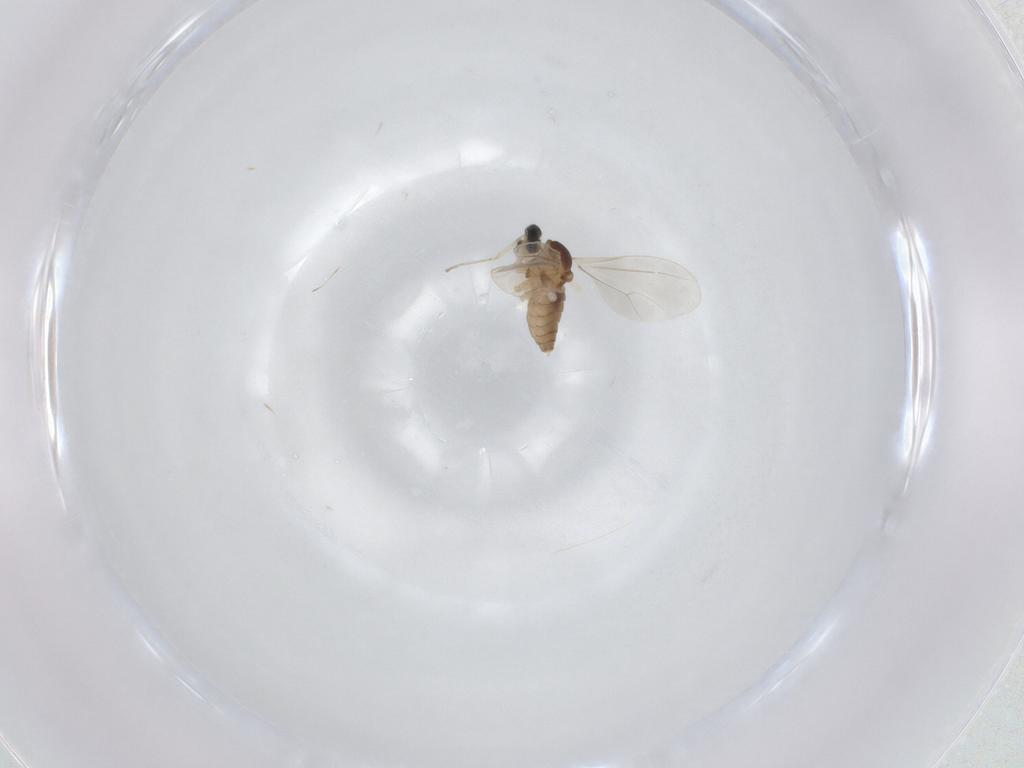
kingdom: Animalia
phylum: Arthropoda
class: Insecta
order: Diptera
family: Cecidomyiidae
